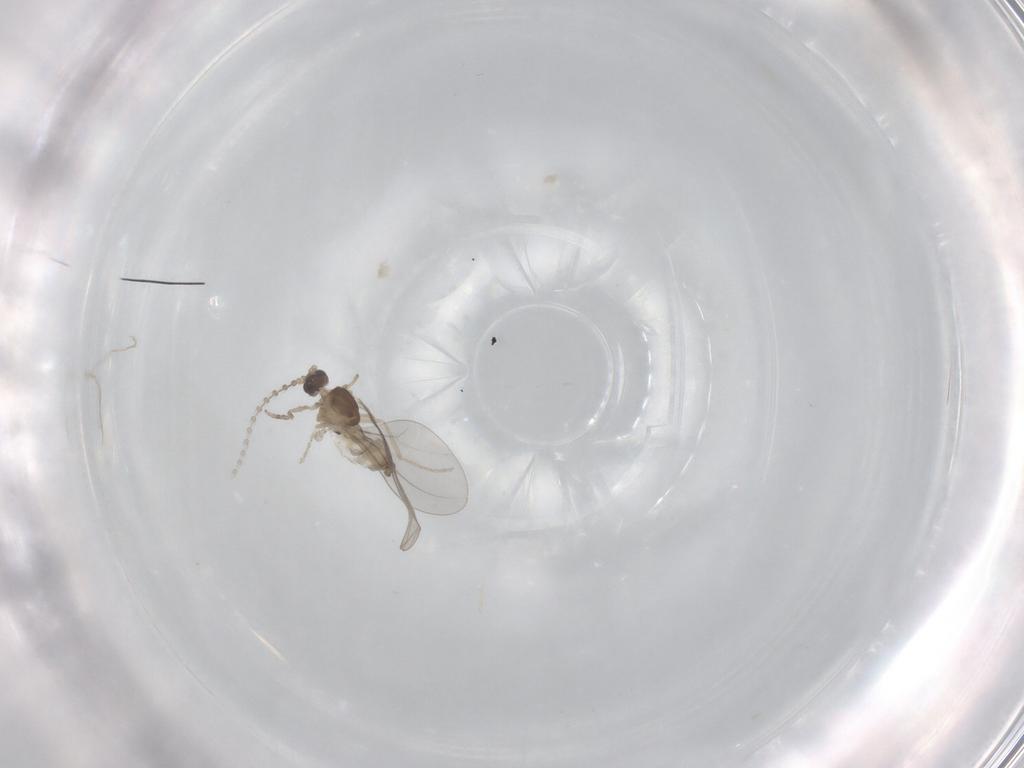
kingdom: Animalia
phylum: Arthropoda
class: Insecta
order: Diptera
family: Cecidomyiidae
